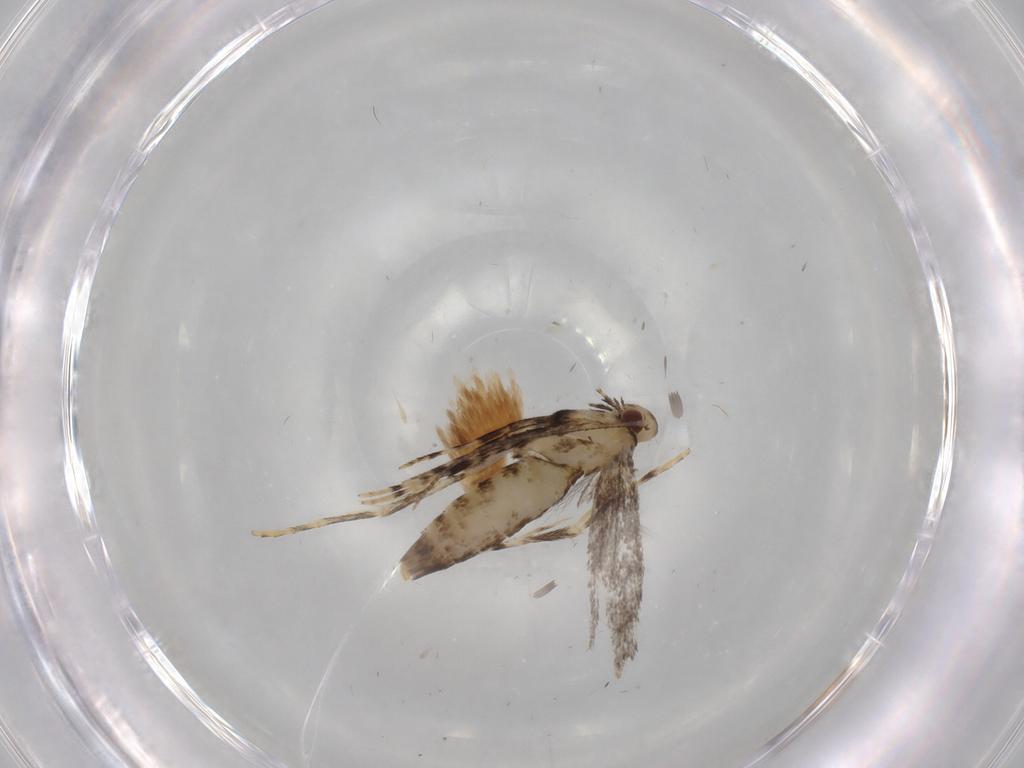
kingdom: Animalia
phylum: Arthropoda
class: Insecta
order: Lepidoptera
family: Gracillariidae
